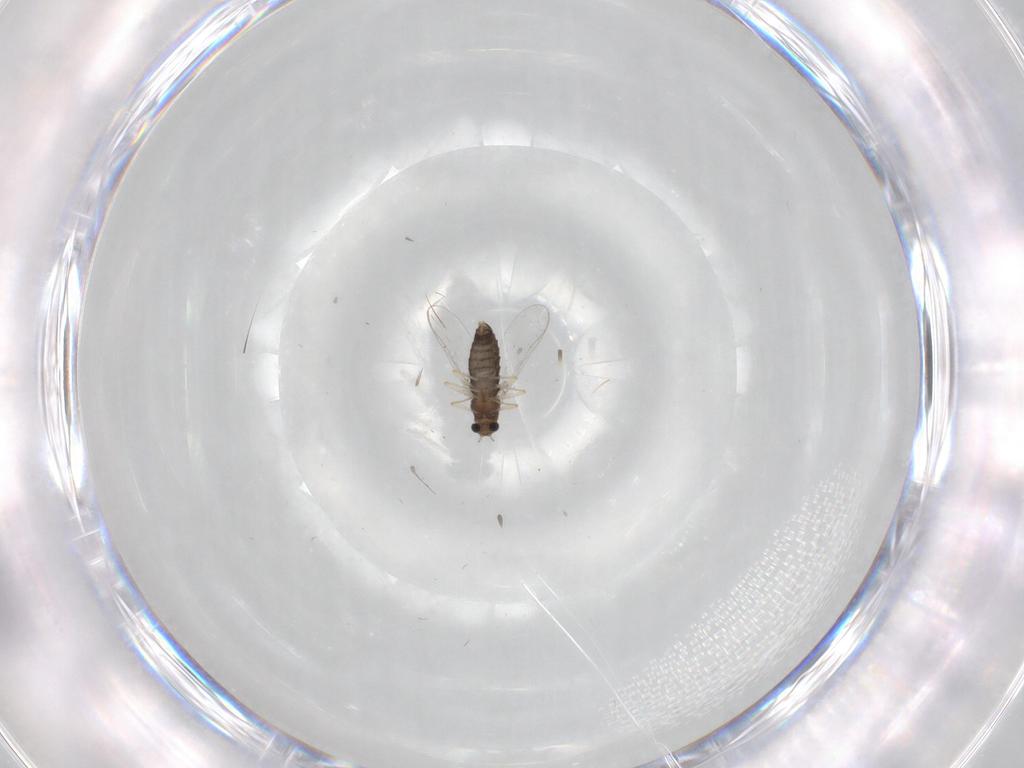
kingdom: Animalia
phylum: Arthropoda
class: Insecta
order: Diptera
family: Chironomidae
